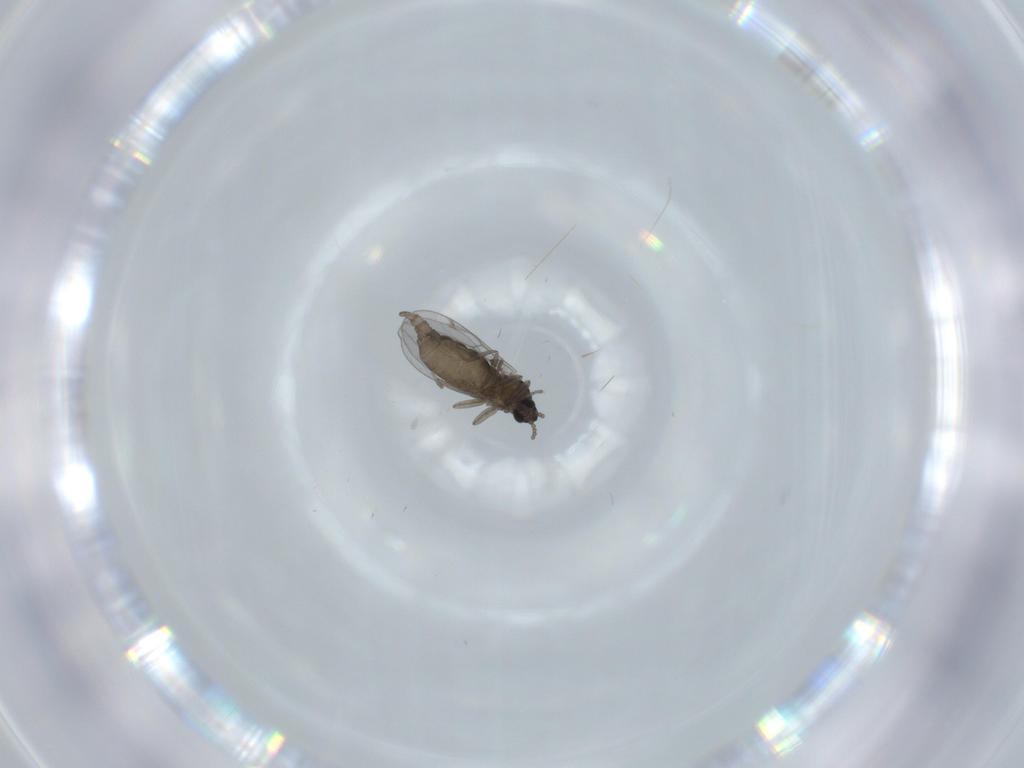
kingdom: Animalia
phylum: Arthropoda
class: Insecta
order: Diptera
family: Cecidomyiidae
